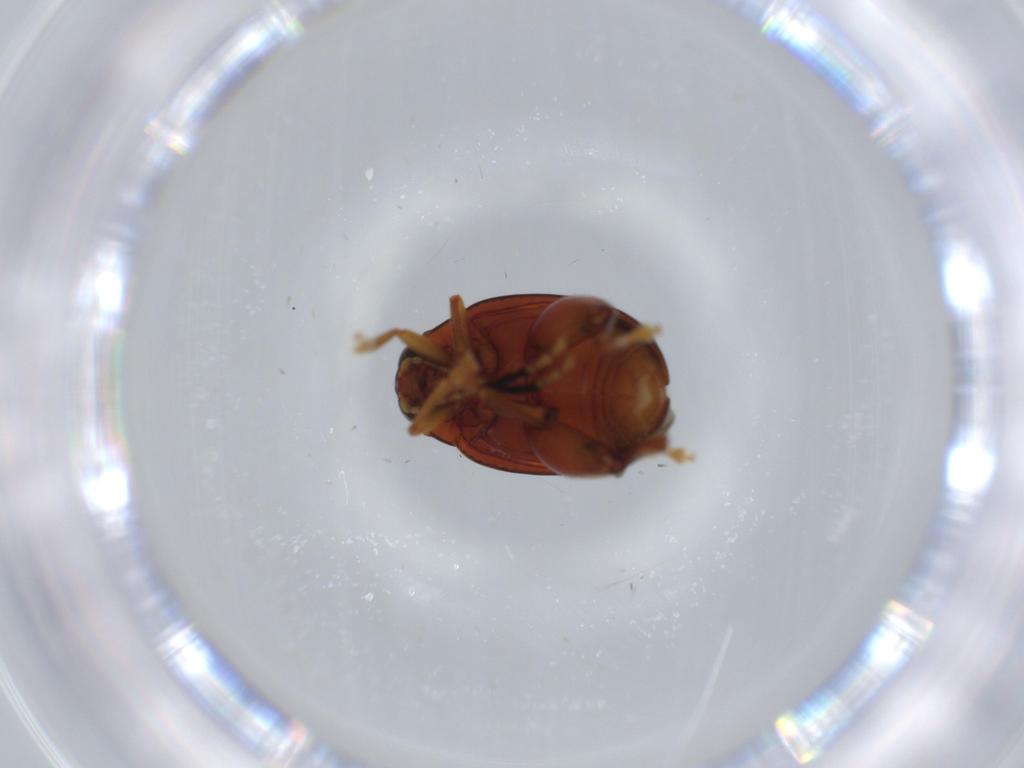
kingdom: Animalia
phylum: Arthropoda
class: Insecta
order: Coleoptera
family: Chrysomelidae
